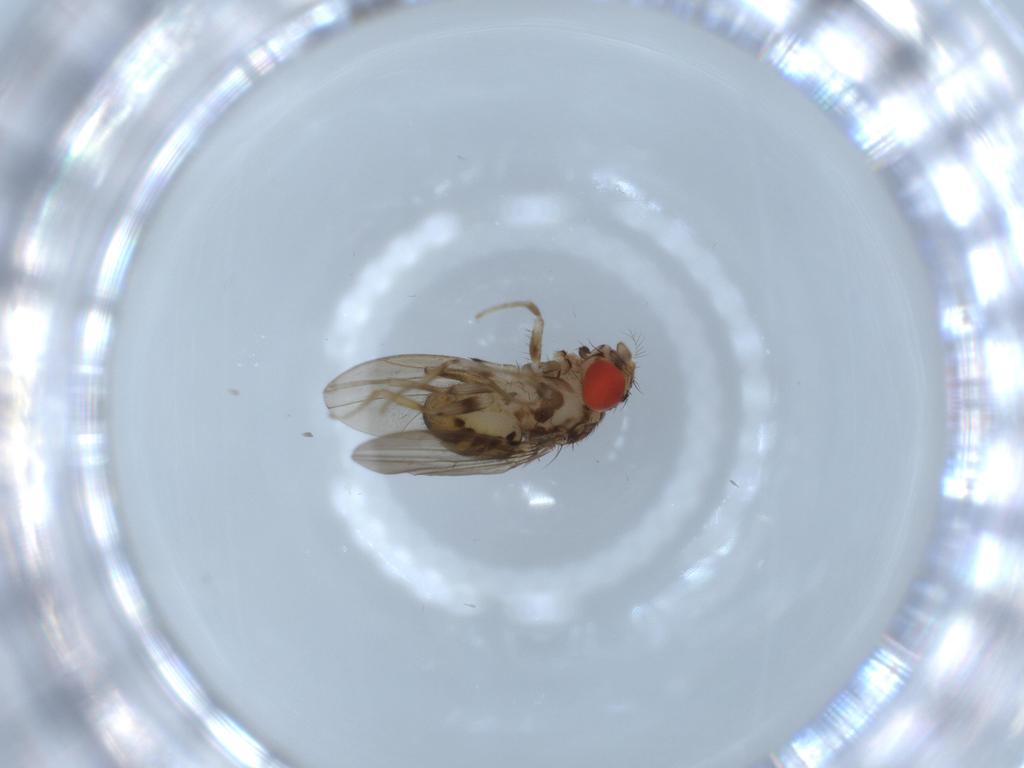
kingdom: Animalia
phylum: Arthropoda
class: Insecta
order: Diptera
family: Drosophilidae
